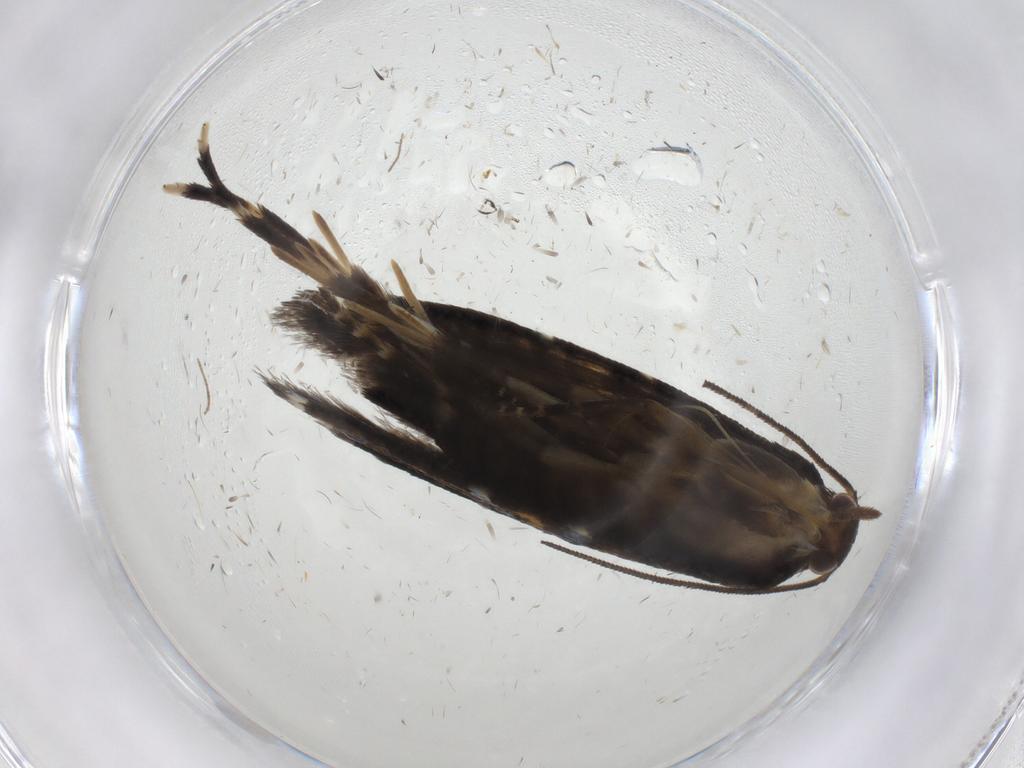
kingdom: Animalia
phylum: Arthropoda
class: Insecta
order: Lepidoptera
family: Glyphipterigidae
